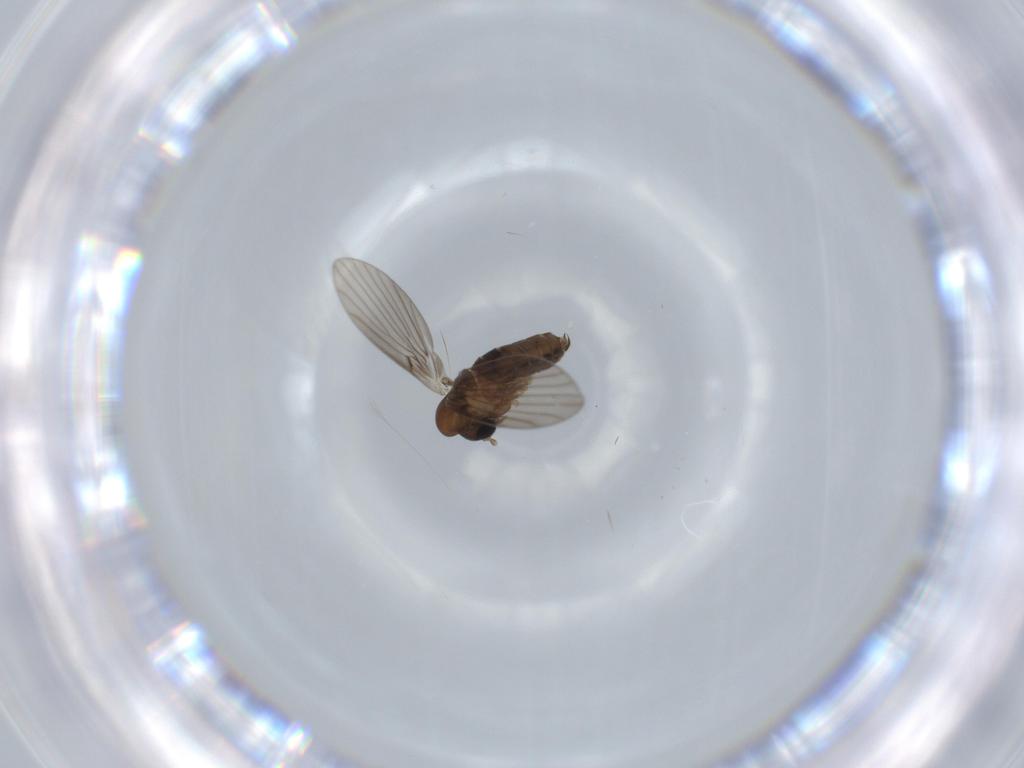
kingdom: Animalia
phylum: Arthropoda
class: Insecta
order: Diptera
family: Psychodidae
